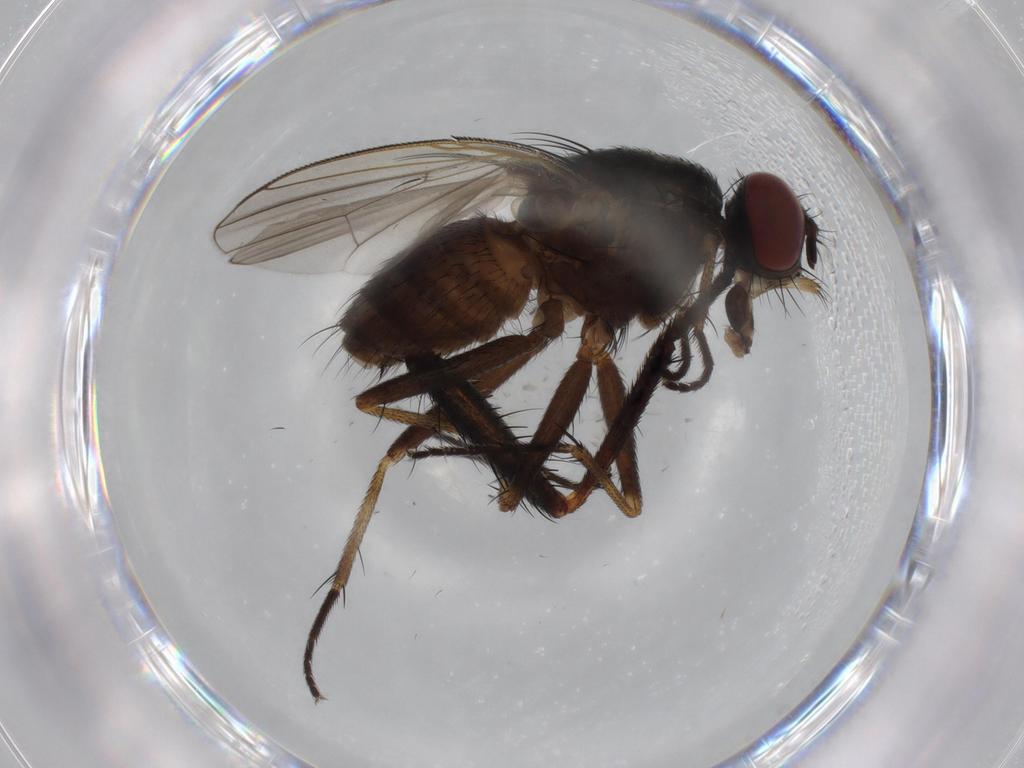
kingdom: Animalia
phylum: Arthropoda
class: Insecta
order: Diptera
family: Muscidae
